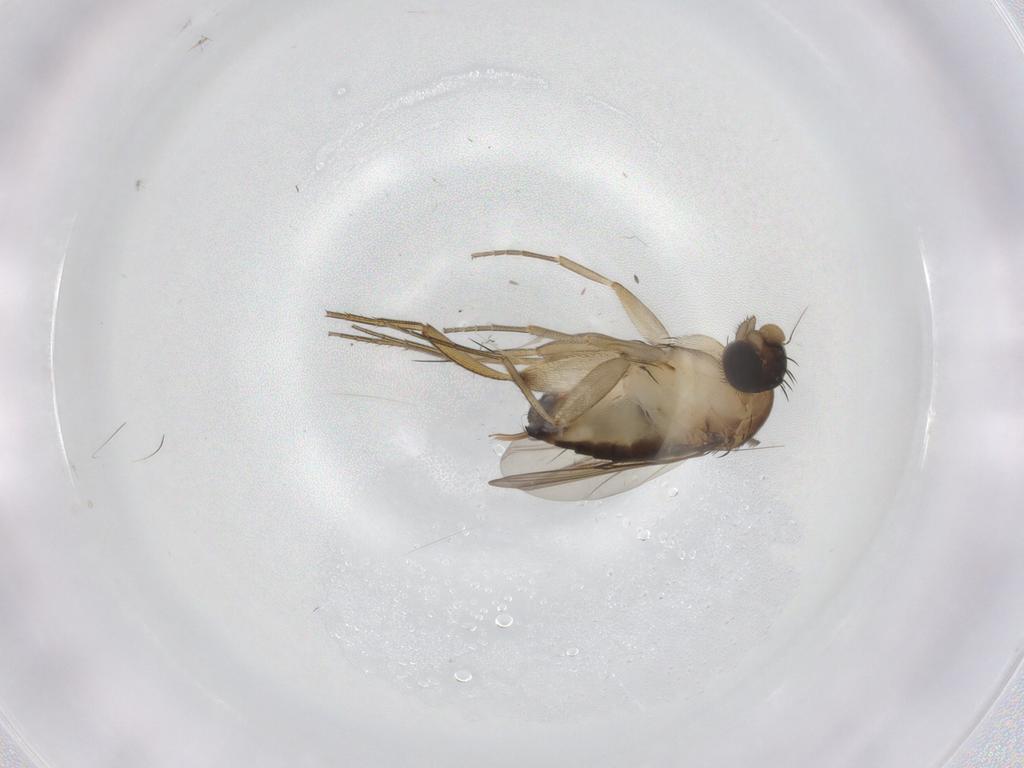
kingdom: Animalia
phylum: Arthropoda
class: Insecta
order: Diptera
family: Phoridae
